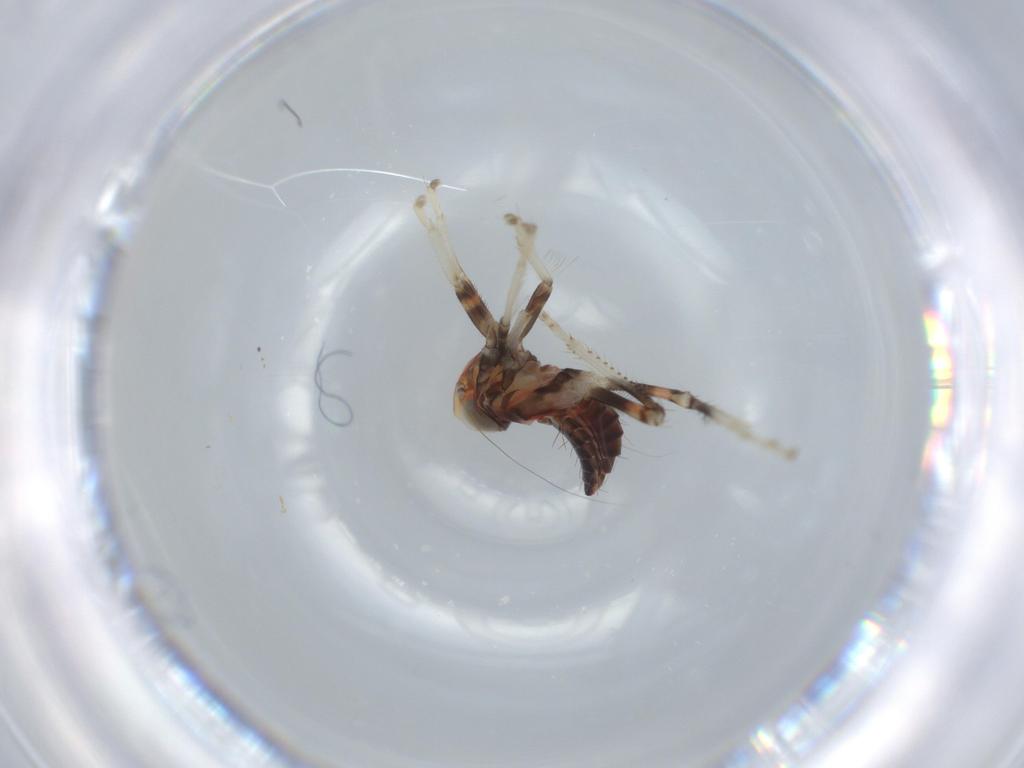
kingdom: Animalia
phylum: Arthropoda
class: Insecta
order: Hemiptera
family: Cicadellidae
